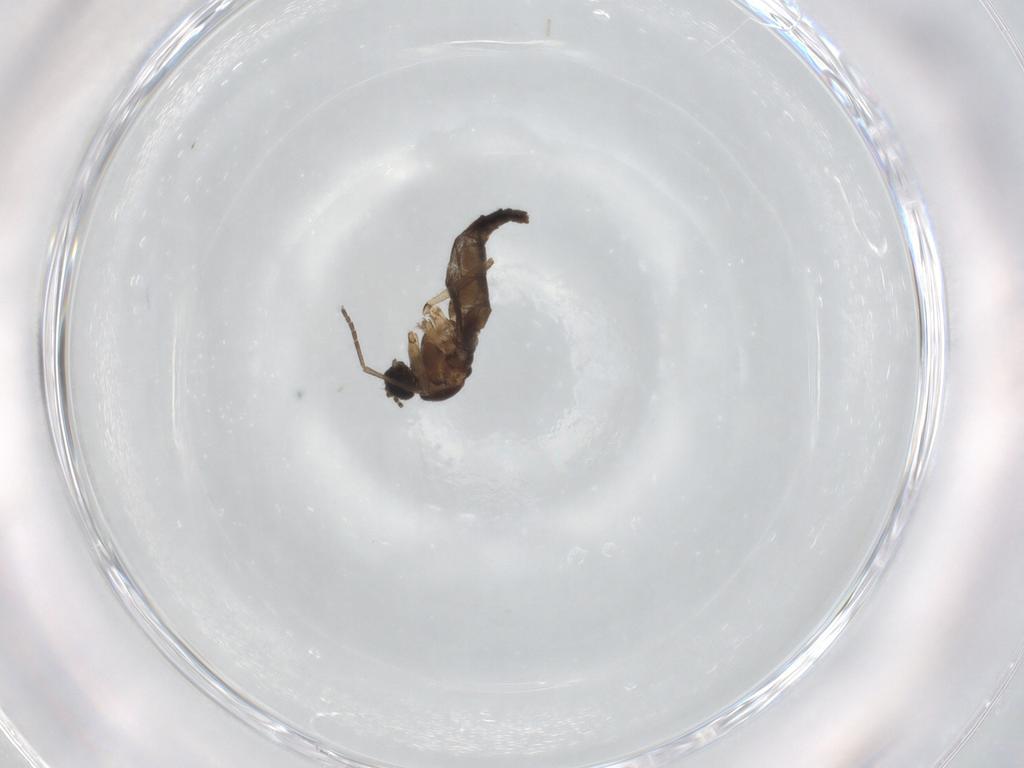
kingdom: Animalia
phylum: Arthropoda
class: Insecta
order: Diptera
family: Sciaridae
